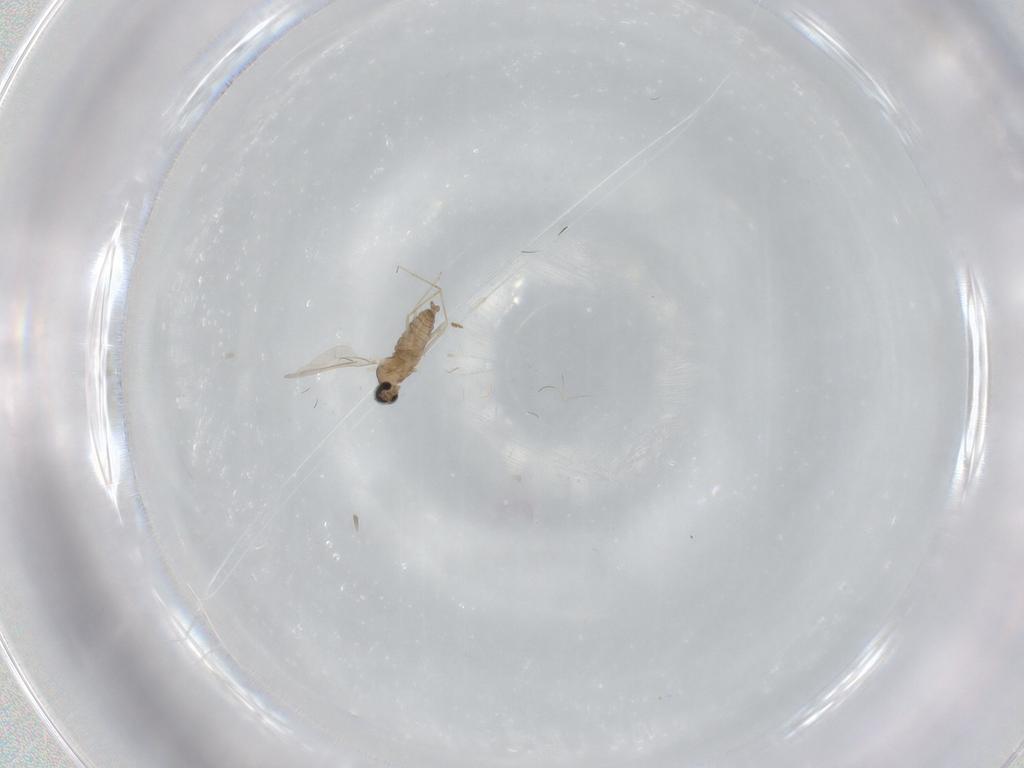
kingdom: Animalia
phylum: Arthropoda
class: Insecta
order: Diptera
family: Cecidomyiidae
